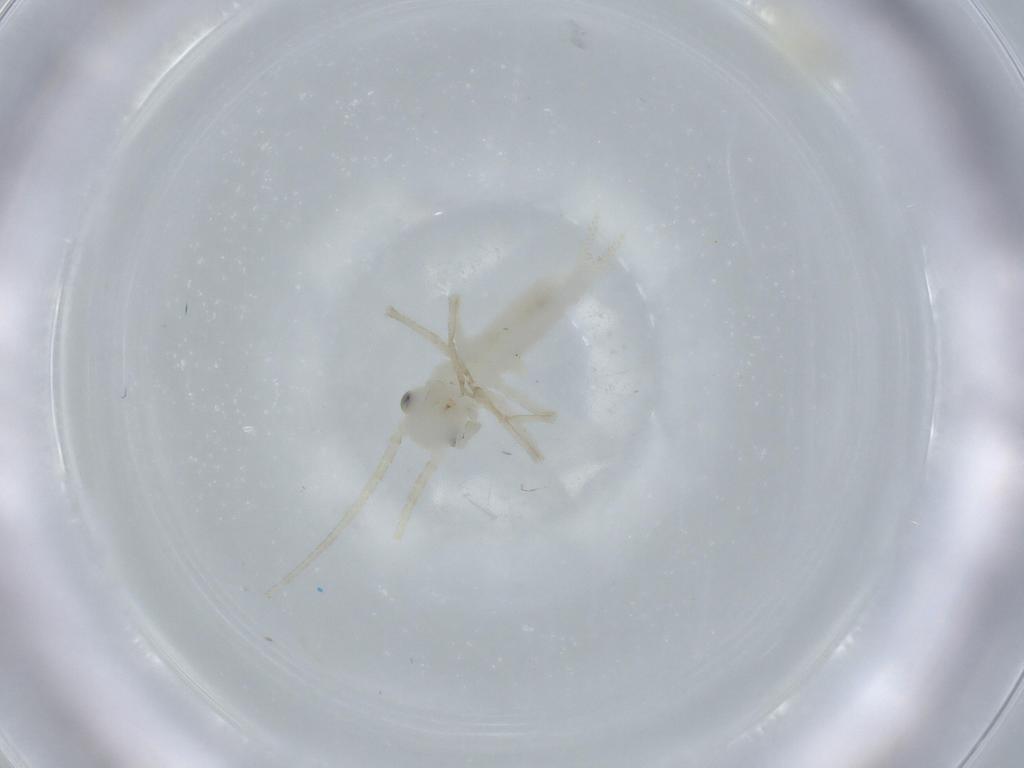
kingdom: Animalia
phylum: Arthropoda
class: Insecta
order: Orthoptera
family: Trigonidiidae
